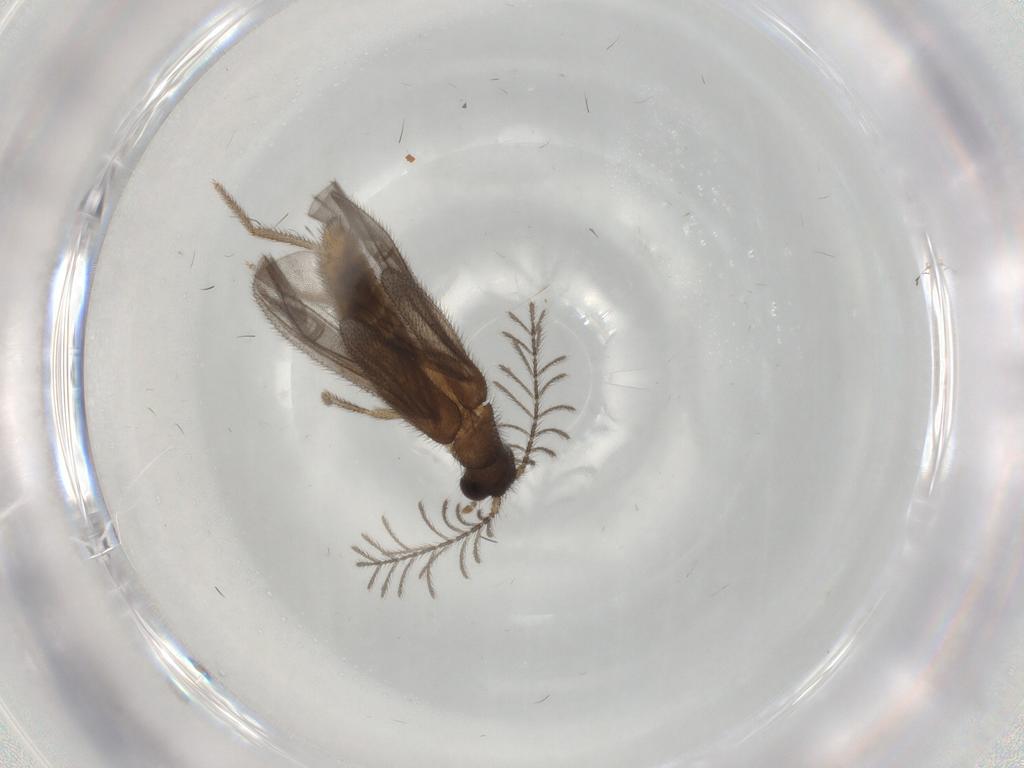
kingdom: Animalia
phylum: Arthropoda
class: Insecta
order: Coleoptera
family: Phengodidae
